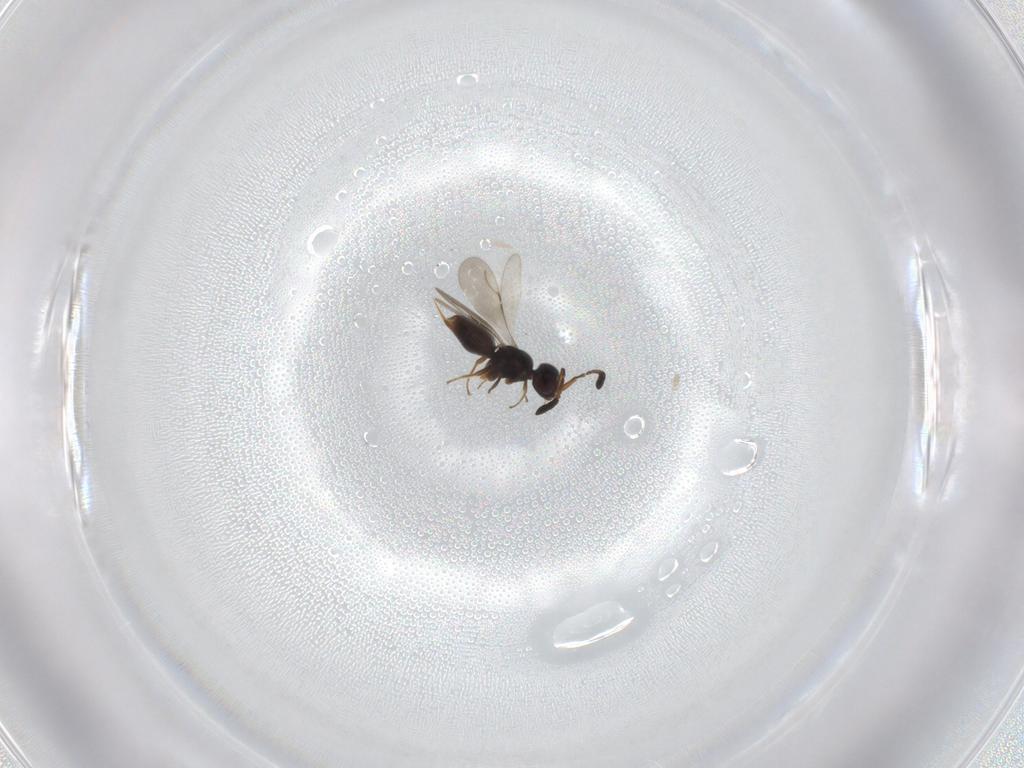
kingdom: Animalia
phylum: Arthropoda
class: Insecta
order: Hymenoptera
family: Braconidae
